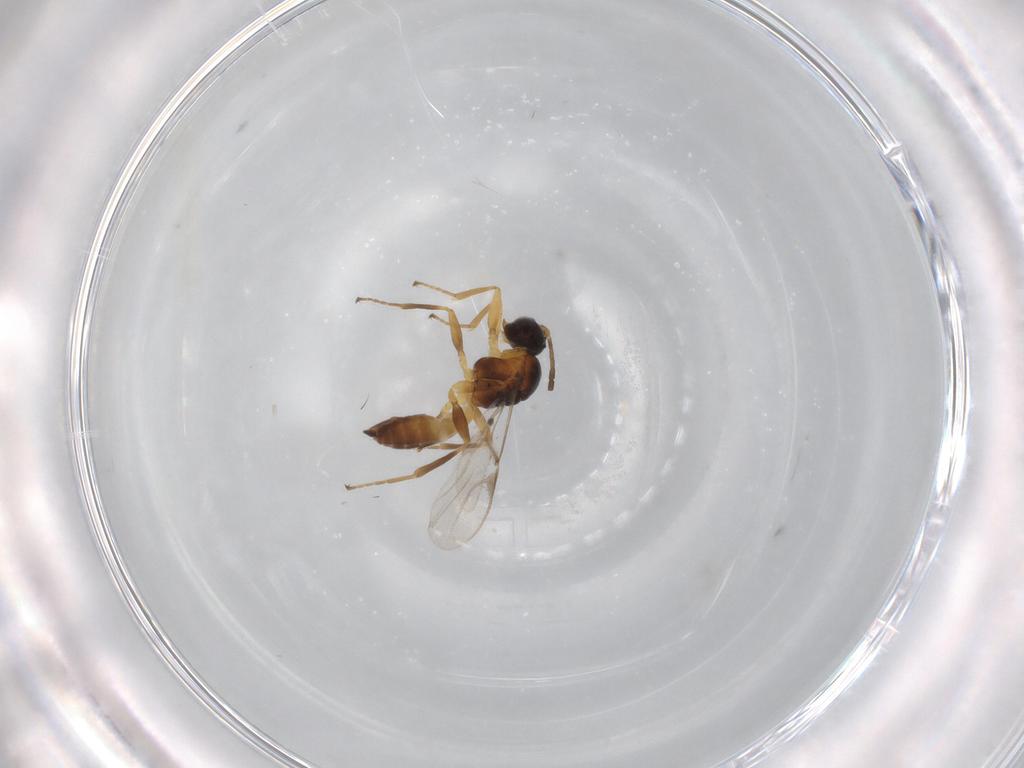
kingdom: Animalia
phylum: Arthropoda
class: Insecta
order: Hymenoptera
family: Braconidae
